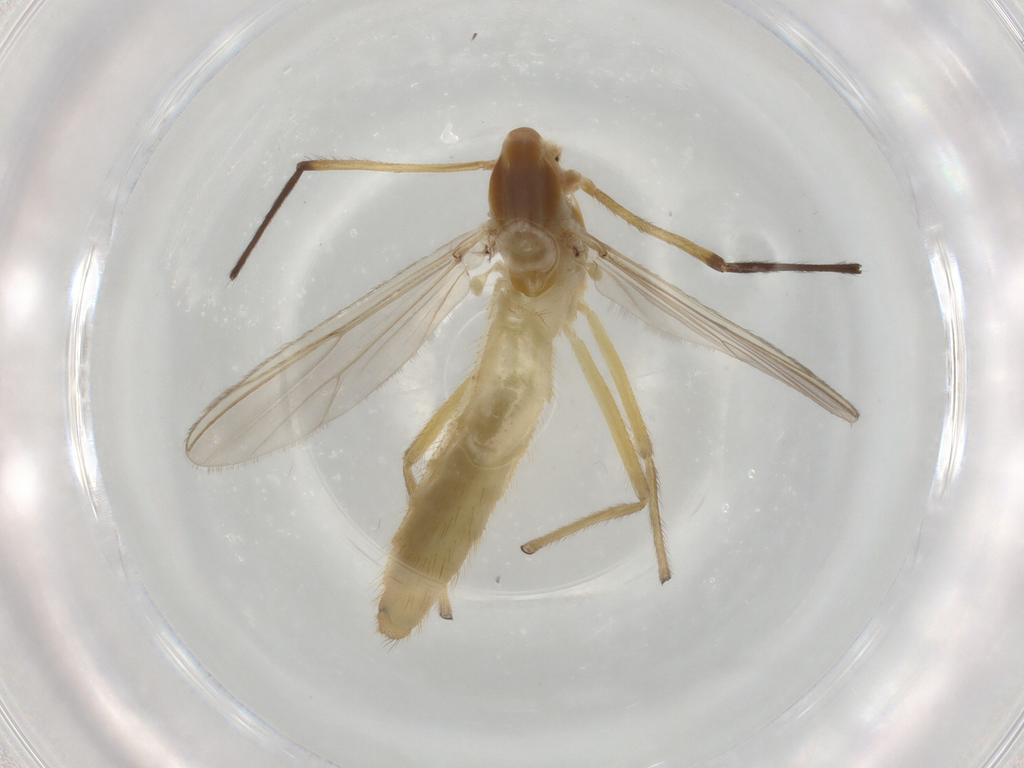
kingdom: Animalia
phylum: Arthropoda
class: Insecta
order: Diptera
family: Chironomidae
